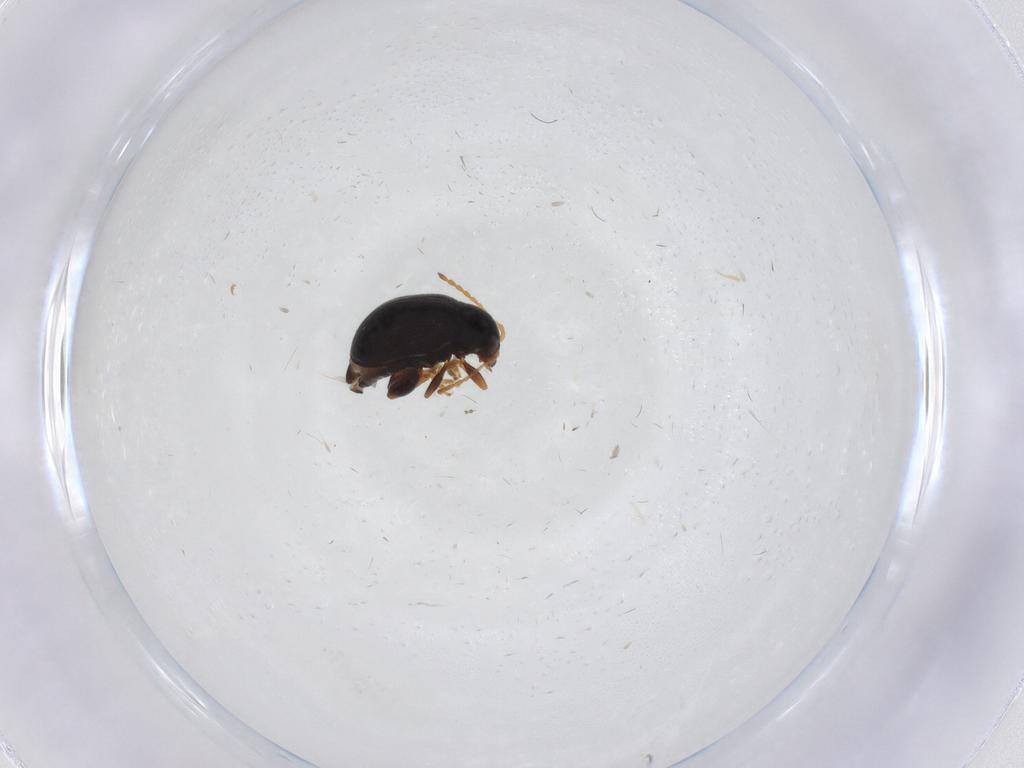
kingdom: Animalia
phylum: Arthropoda
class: Insecta
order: Coleoptera
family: Chrysomelidae
